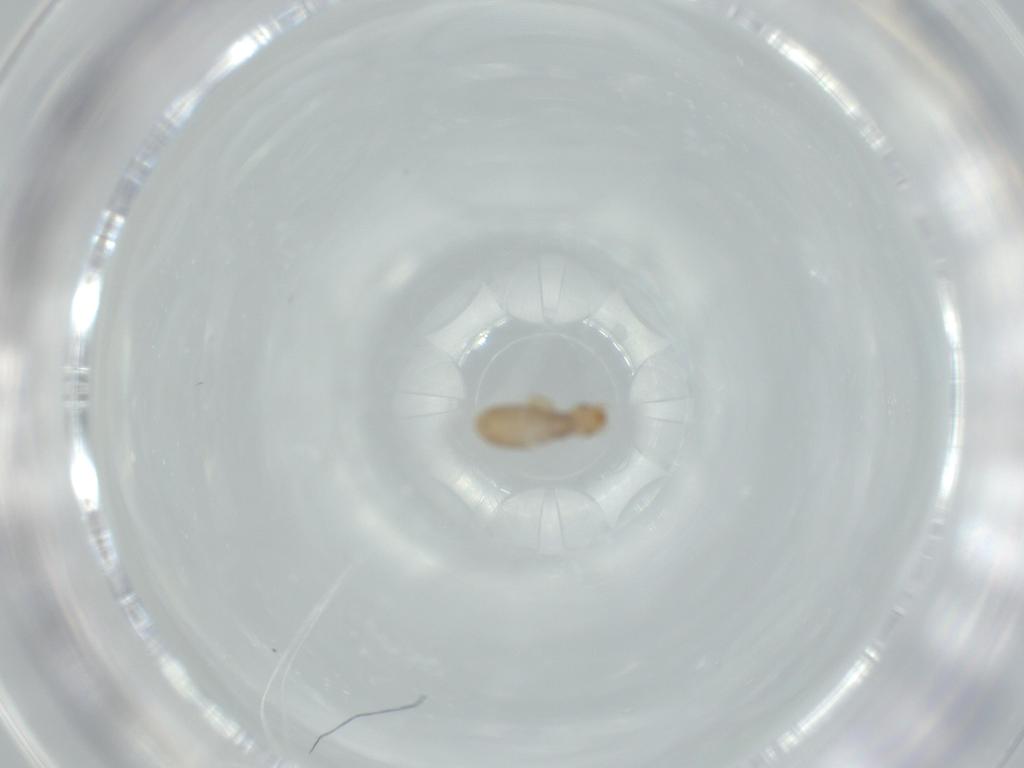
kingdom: Animalia
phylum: Arthropoda
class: Insecta
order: Psocodea
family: Liposcelididae
